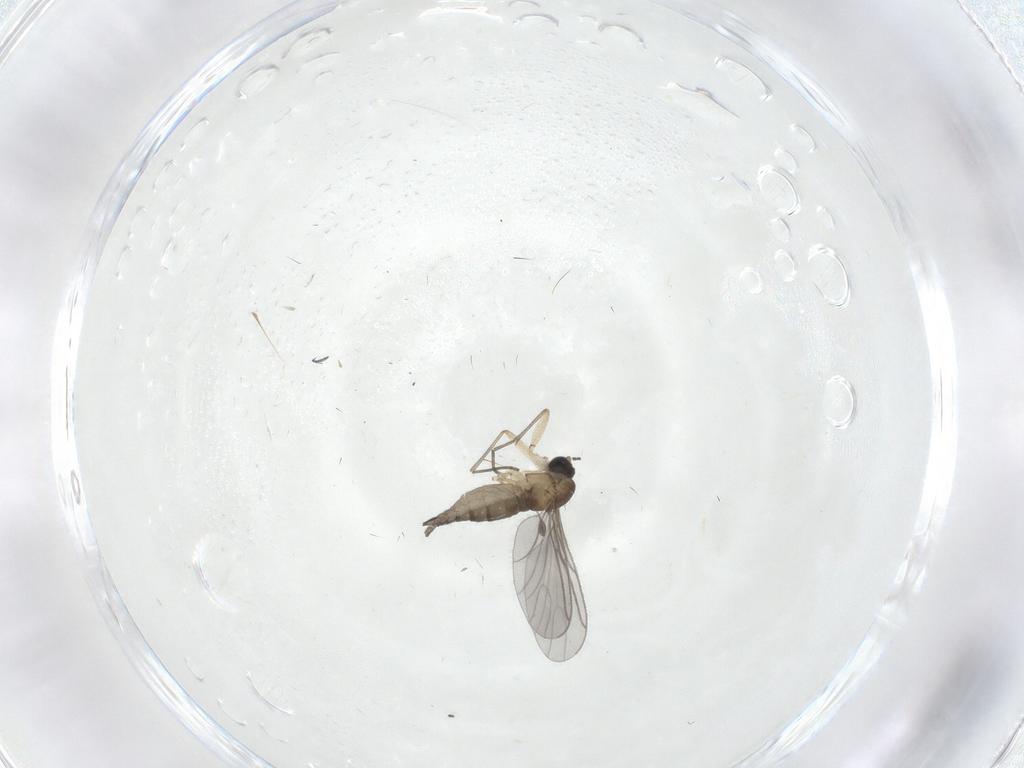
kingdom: Animalia
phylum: Arthropoda
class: Insecta
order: Diptera
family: Sciaridae
